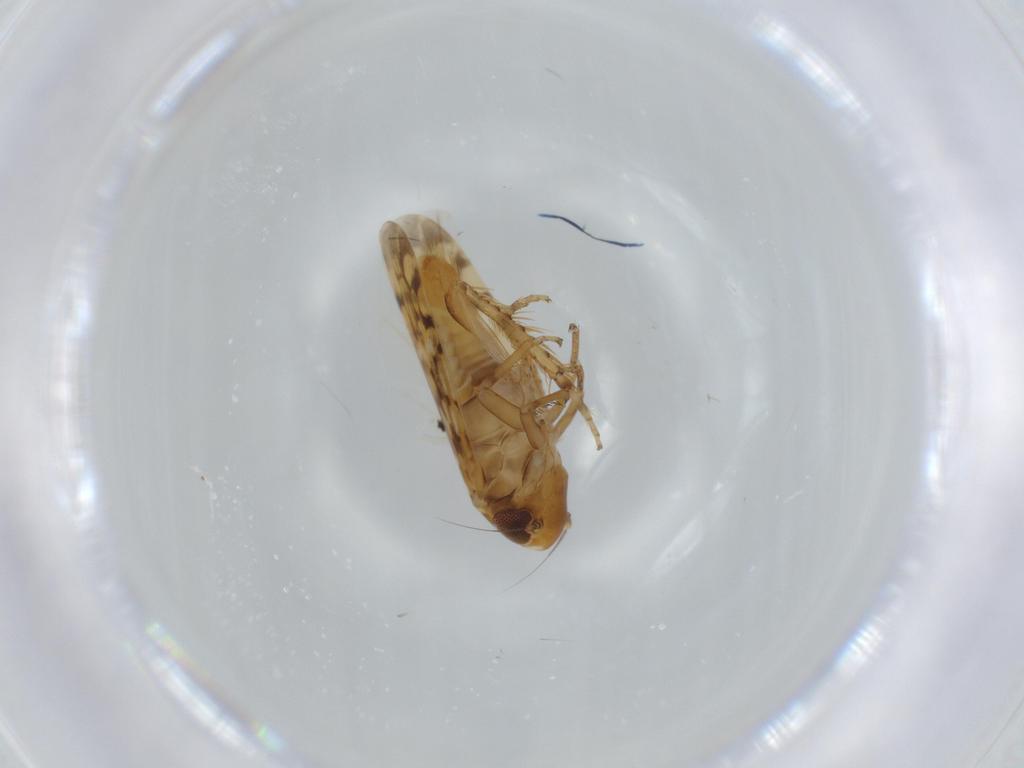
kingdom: Animalia
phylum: Arthropoda
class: Insecta
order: Hemiptera
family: Cicadellidae
